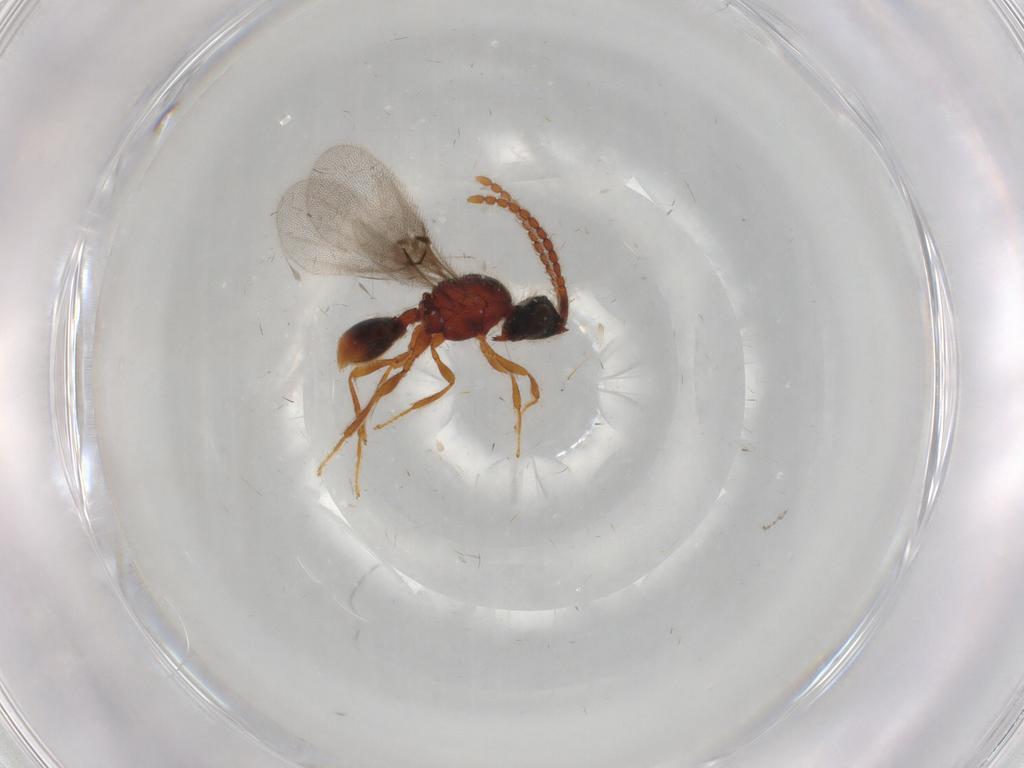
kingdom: Animalia
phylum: Arthropoda
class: Insecta
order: Hymenoptera
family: Diapriidae
